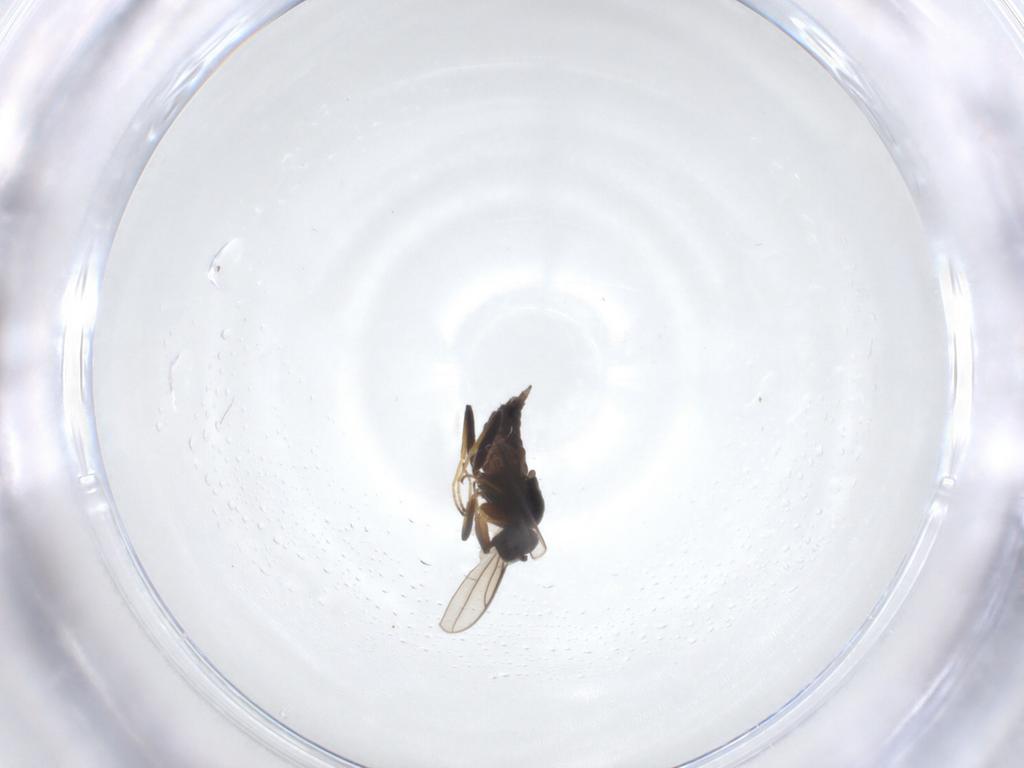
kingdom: Animalia
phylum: Arthropoda
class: Insecta
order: Diptera
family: Hybotidae
